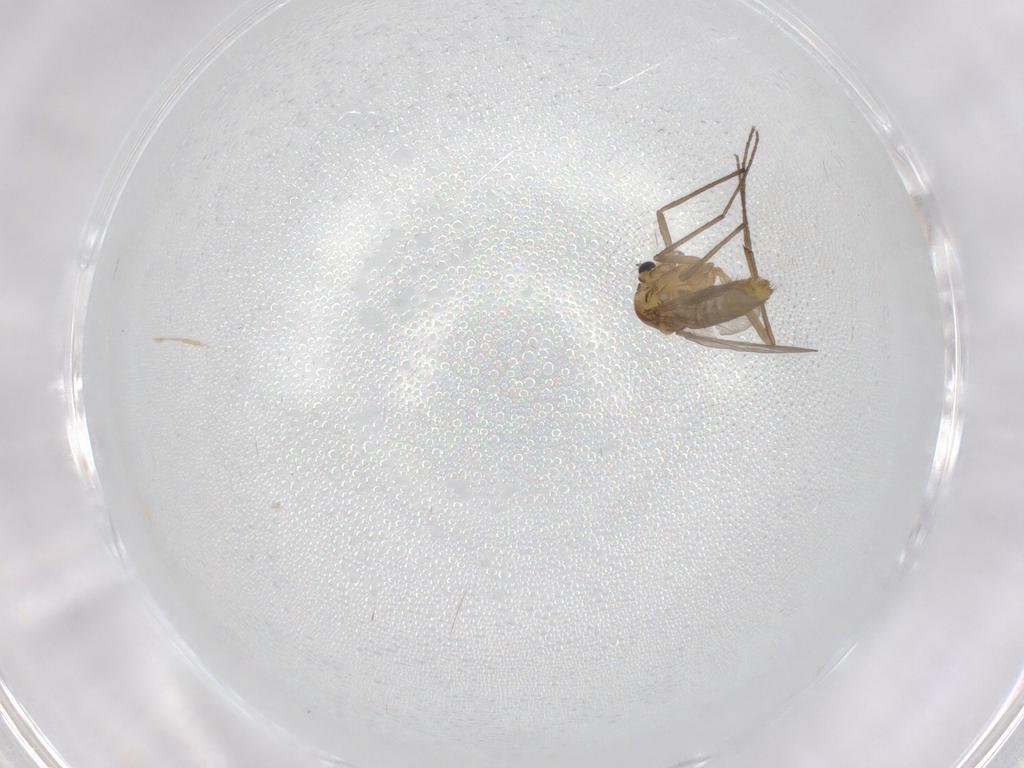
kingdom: Animalia
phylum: Arthropoda
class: Insecta
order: Diptera
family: Chironomidae
